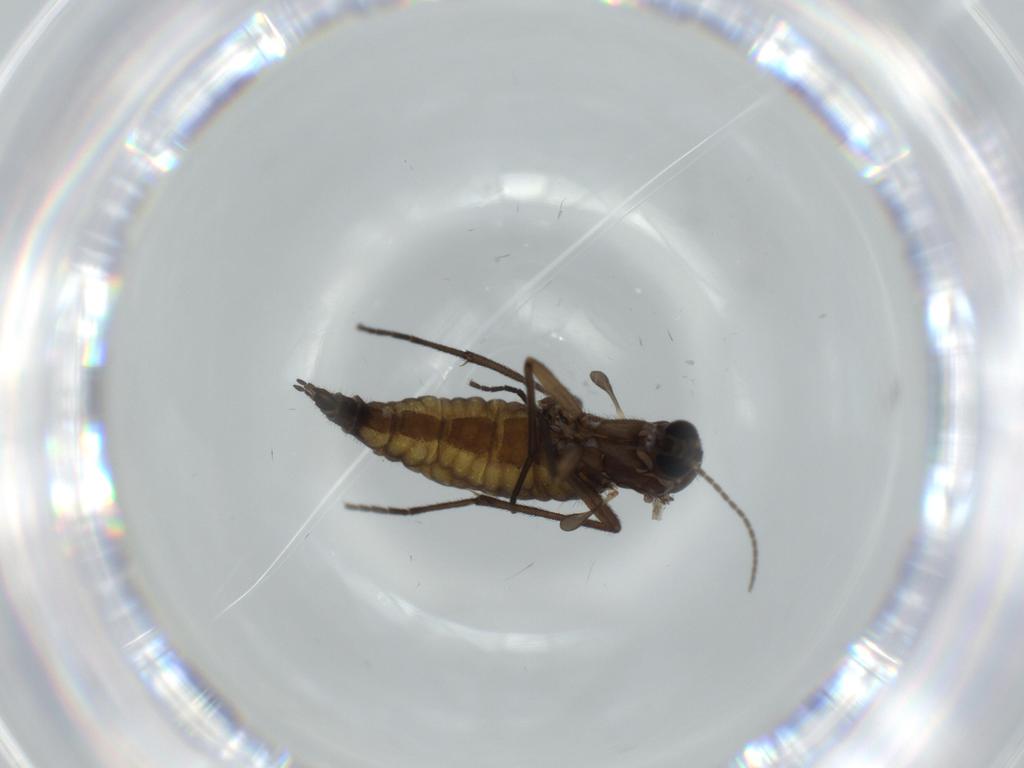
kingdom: Animalia
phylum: Arthropoda
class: Insecta
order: Diptera
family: Sciaridae
